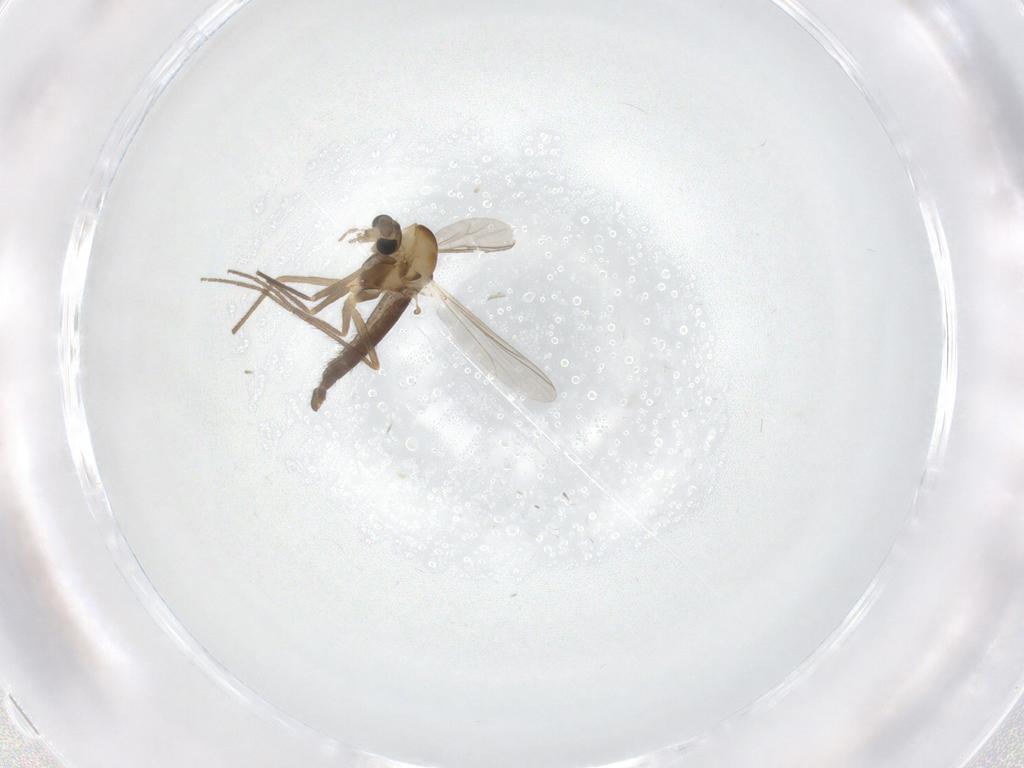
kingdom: Animalia
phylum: Arthropoda
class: Insecta
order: Diptera
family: Chironomidae
